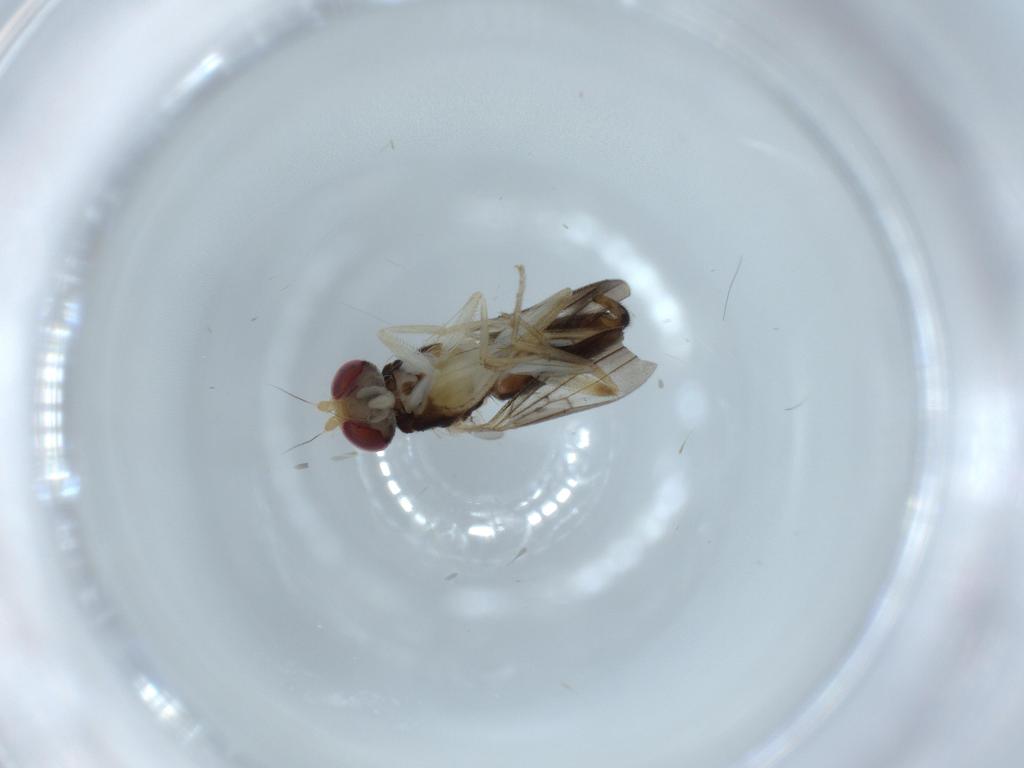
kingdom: Animalia
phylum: Arthropoda
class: Insecta
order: Diptera
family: Clusiidae
